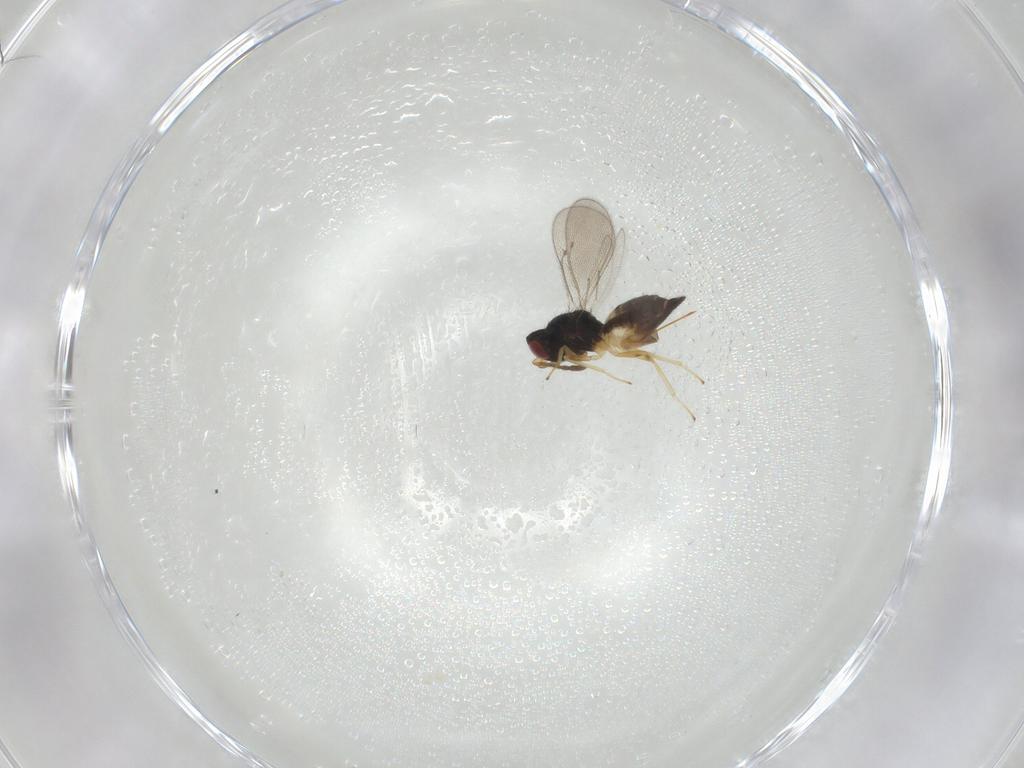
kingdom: Animalia
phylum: Arthropoda
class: Insecta
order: Hymenoptera
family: Eulophidae
